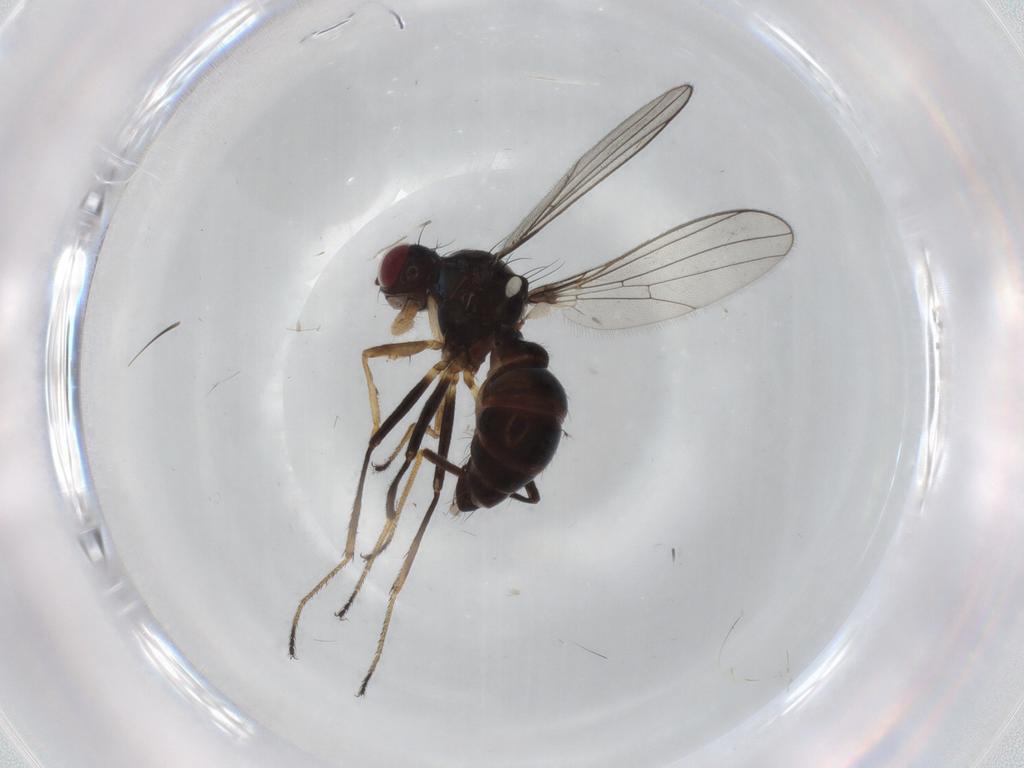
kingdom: Animalia
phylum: Arthropoda
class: Insecta
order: Diptera
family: Sepsidae
